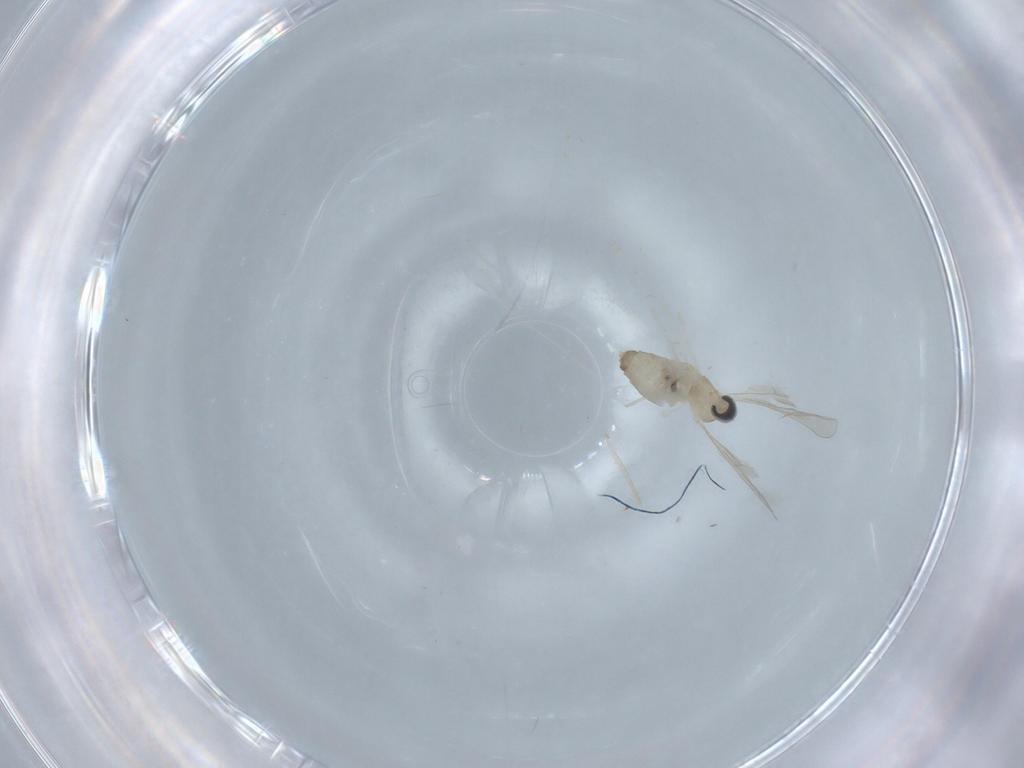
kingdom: Animalia
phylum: Arthropoda
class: Insecta
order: Diptera
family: Cecidomyiidae
